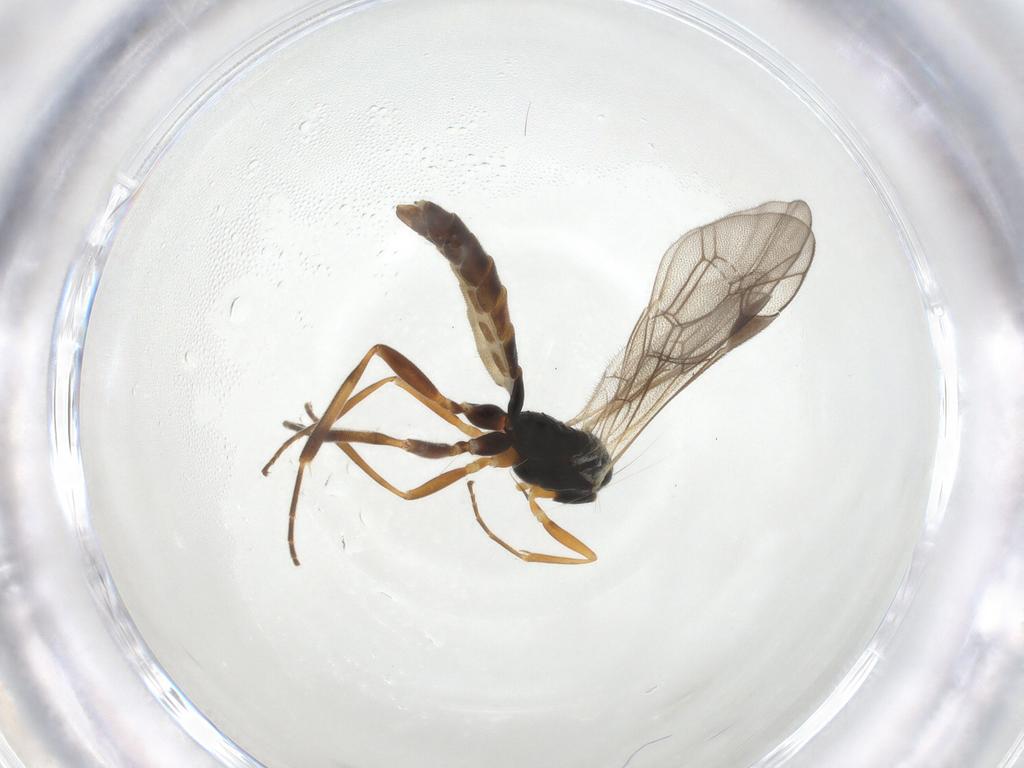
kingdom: Animalia
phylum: Arthropoda
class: Insecta
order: Hymenoptera
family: Ichneumonidae
